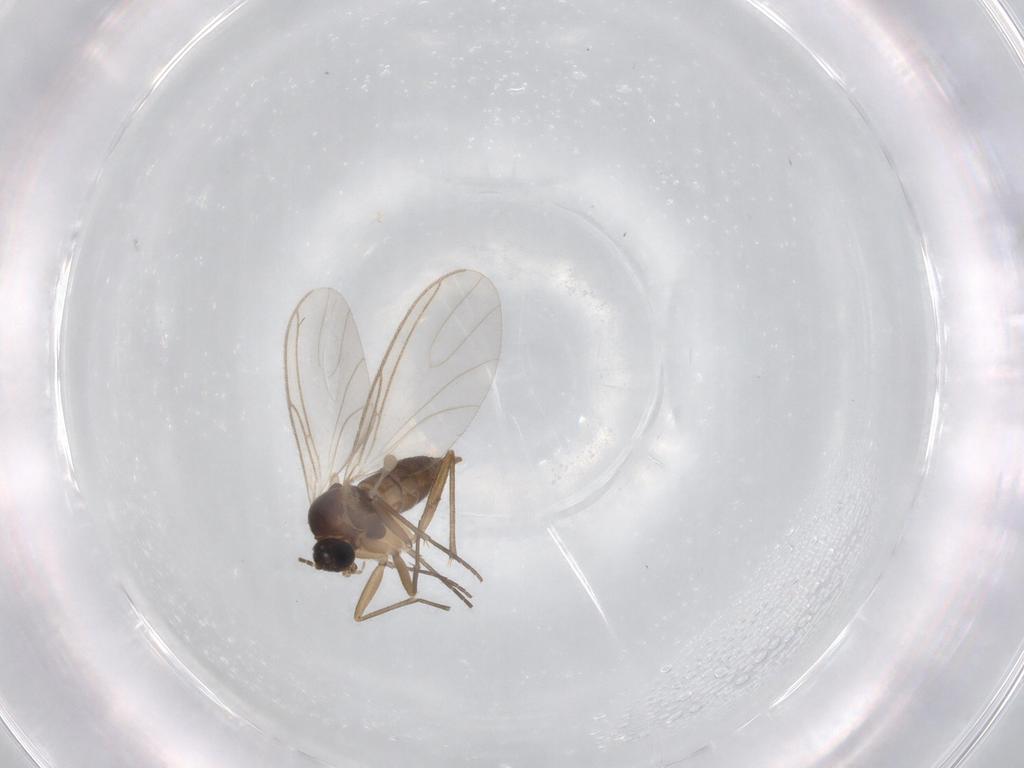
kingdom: Animalia
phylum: Arthropoda
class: Insecta
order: Diptera
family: Sciaridae
